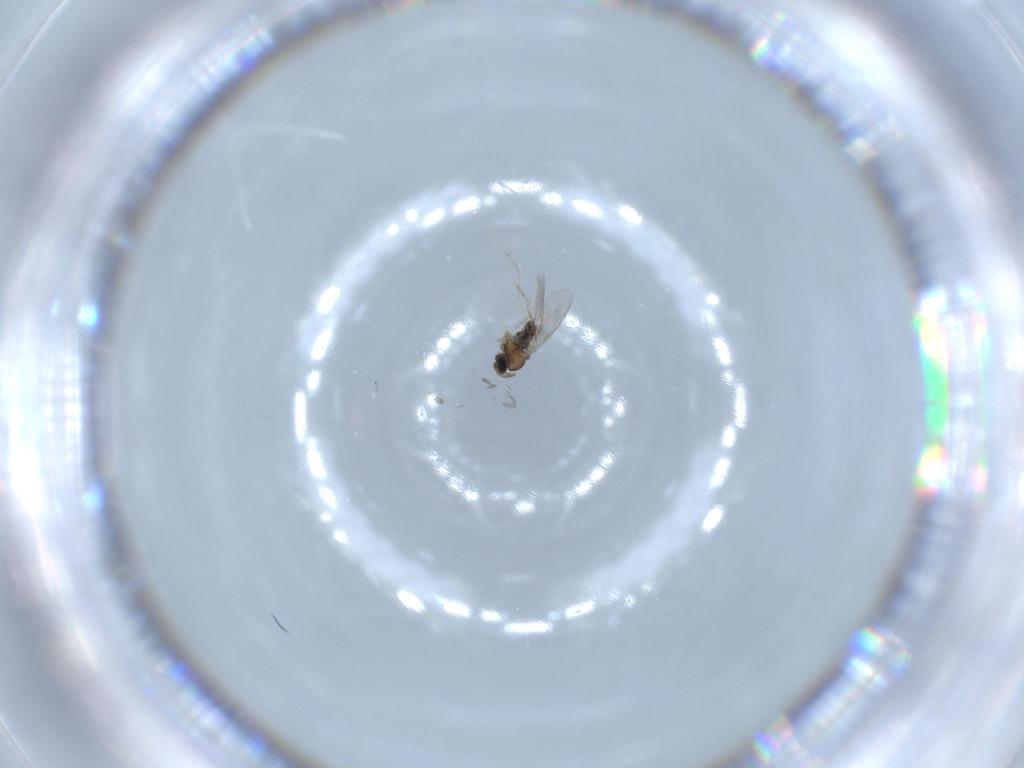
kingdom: Animalia
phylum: Arthropoda
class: Insecta
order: Diptera
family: Cecidomyiidae
